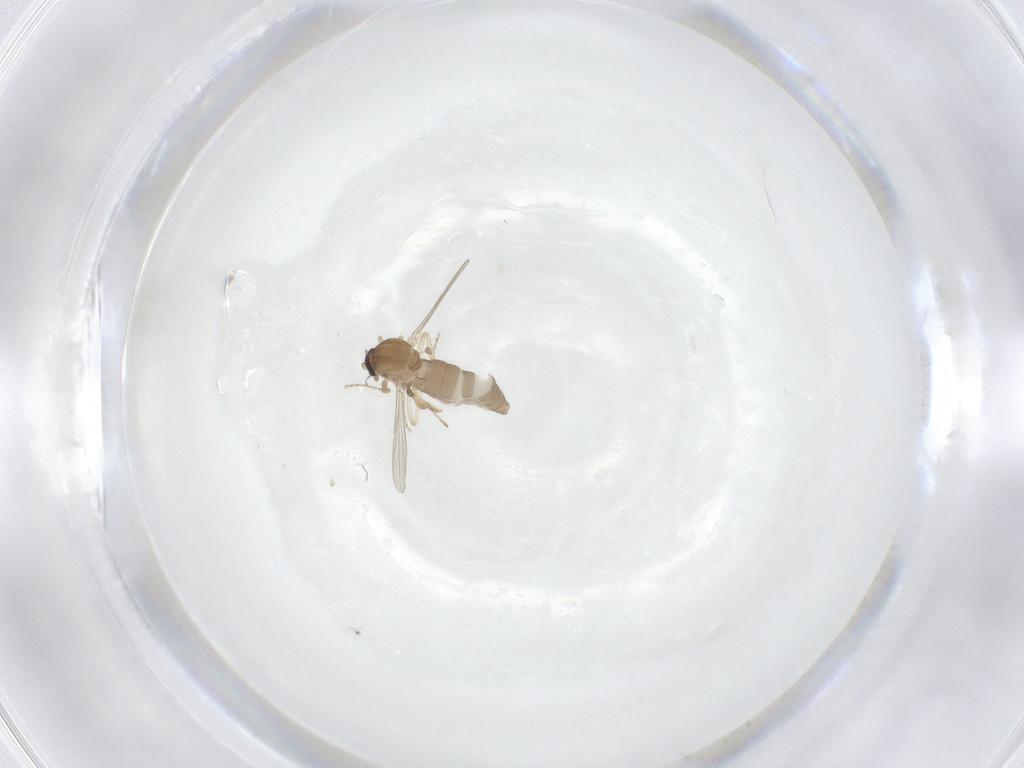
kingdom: Animalia
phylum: Arthropoda
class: Insecta
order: Diptera
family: Ceratopogonidae
